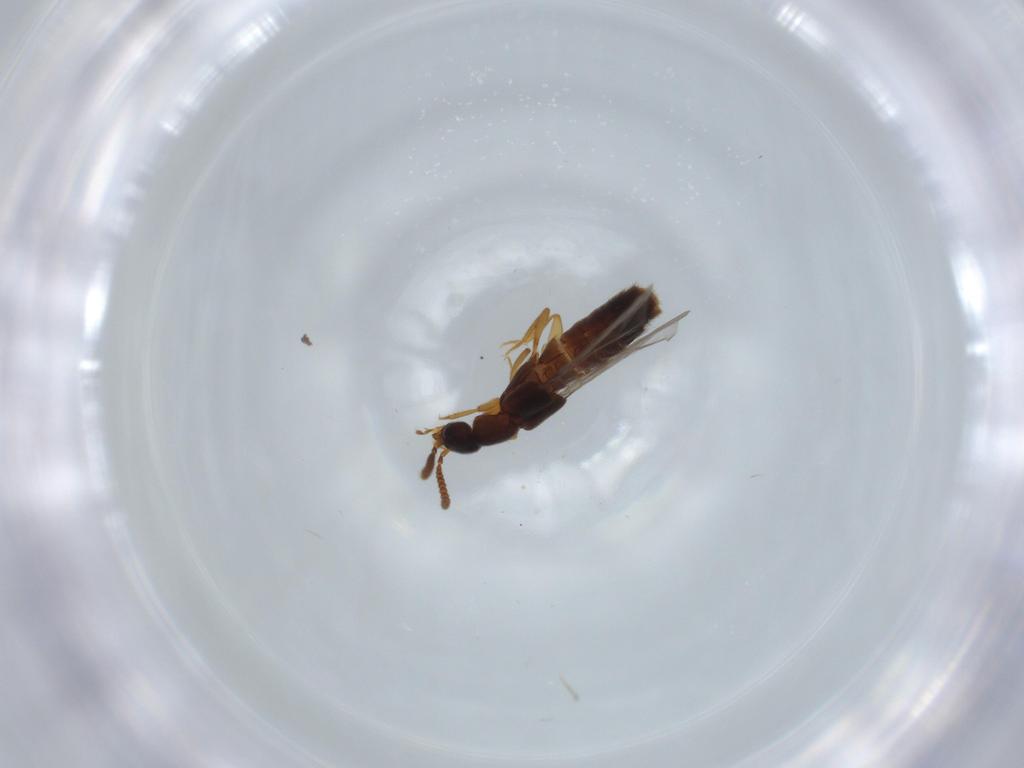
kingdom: Animalia
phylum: Arthropoda
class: Insecta
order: Coleoptera
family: Staphylinidae
